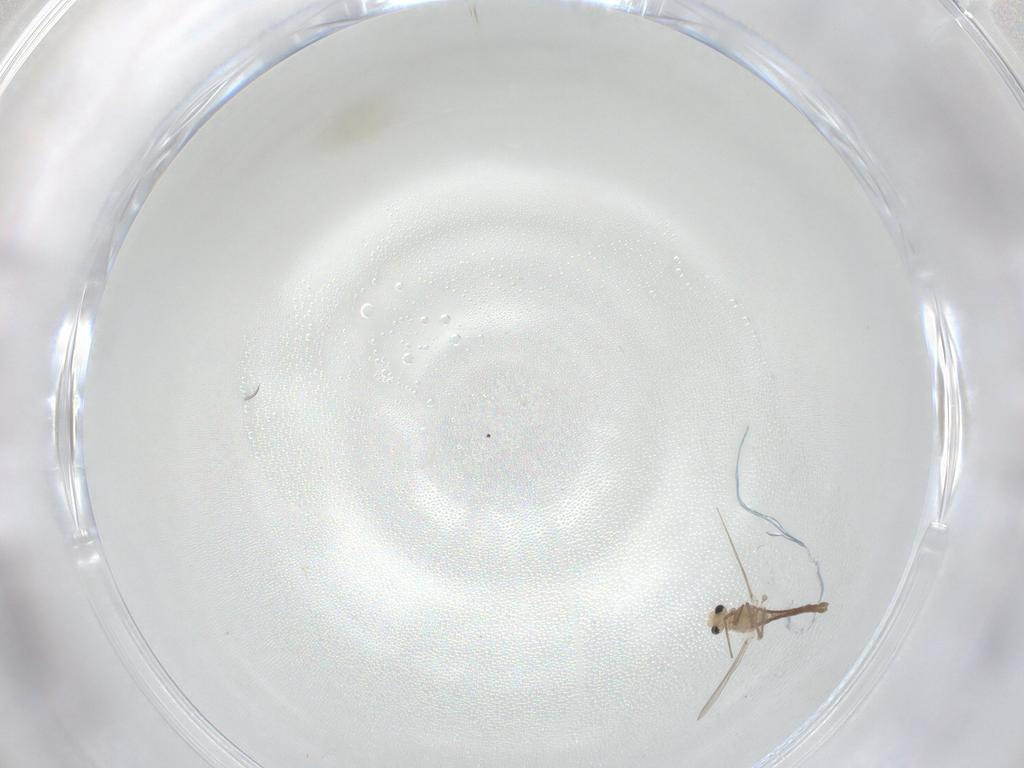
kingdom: Animalia
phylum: Arthropoda
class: Insecta
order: Diptera
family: Chironomidae
